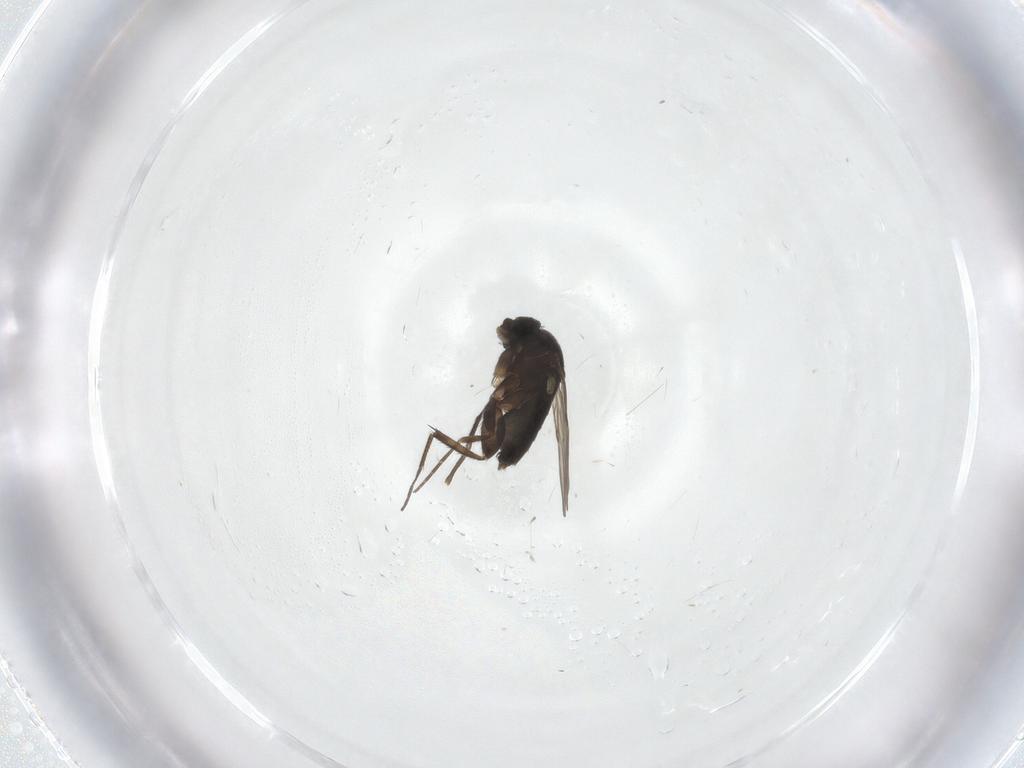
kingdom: Animalia
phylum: Arthropoda
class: Insecta
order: Diptera
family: Phoridae
